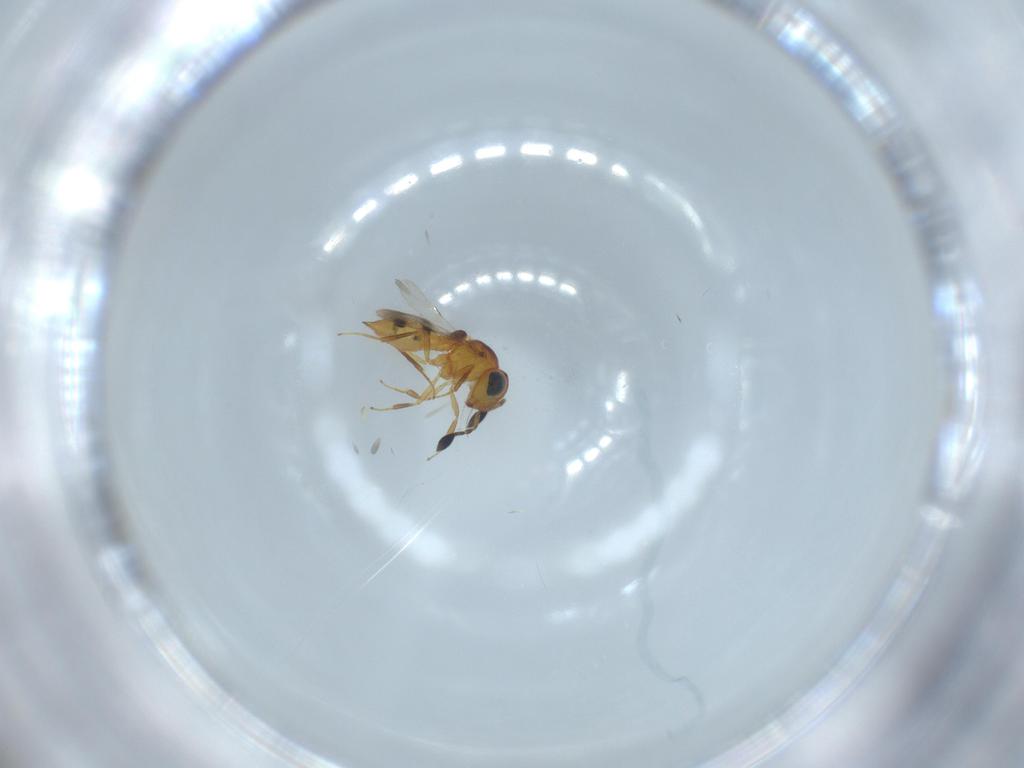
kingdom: Animalia
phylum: Arthropoda
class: Insecta
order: Hymenoptera
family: Scelionidae
